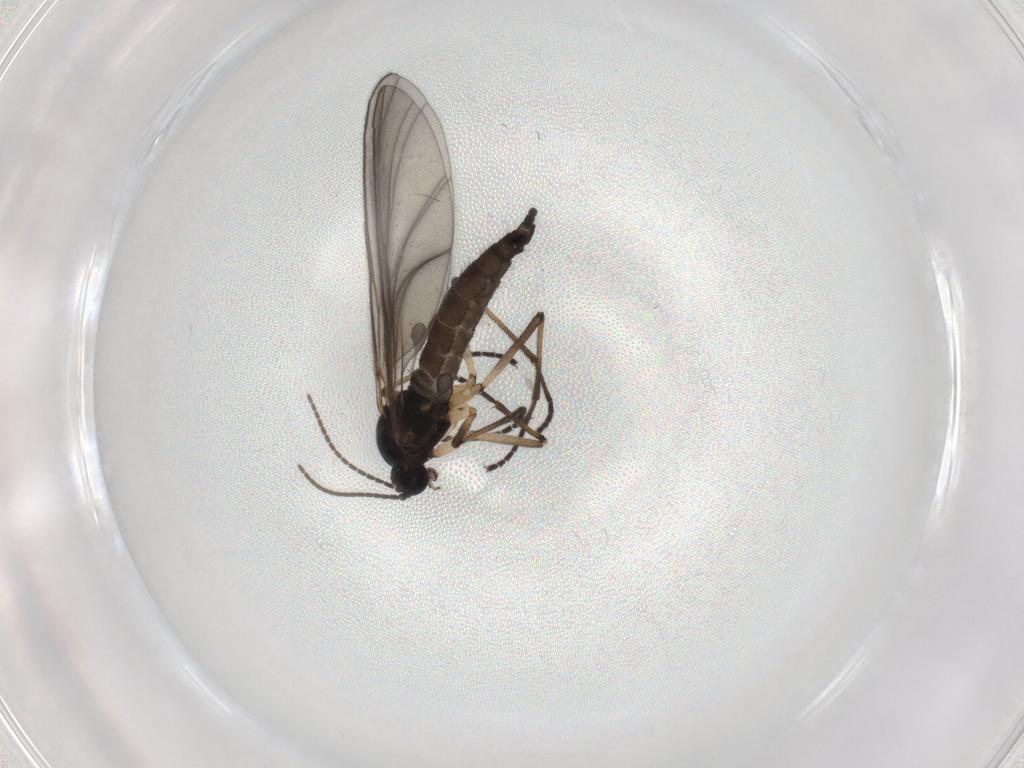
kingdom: Animalia
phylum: Arthropoda
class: Insecta
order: Diptera
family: Sciaridae
